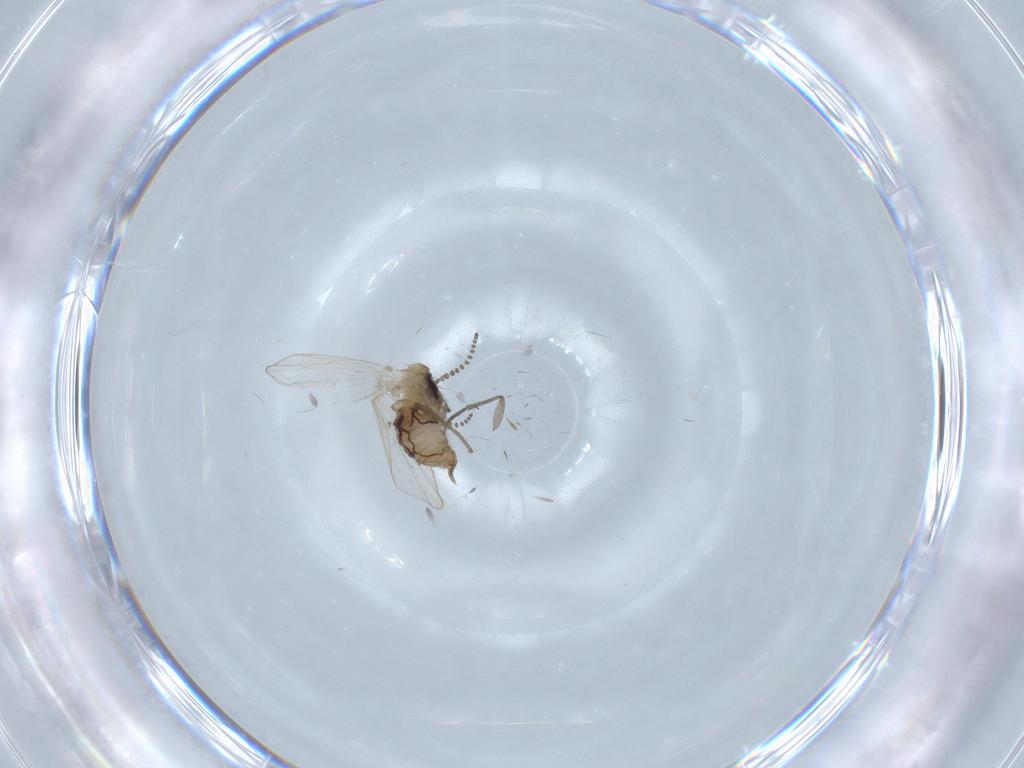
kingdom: Animalia
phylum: Arthropoda
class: Insecta
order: Diptera
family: Psychodidae
